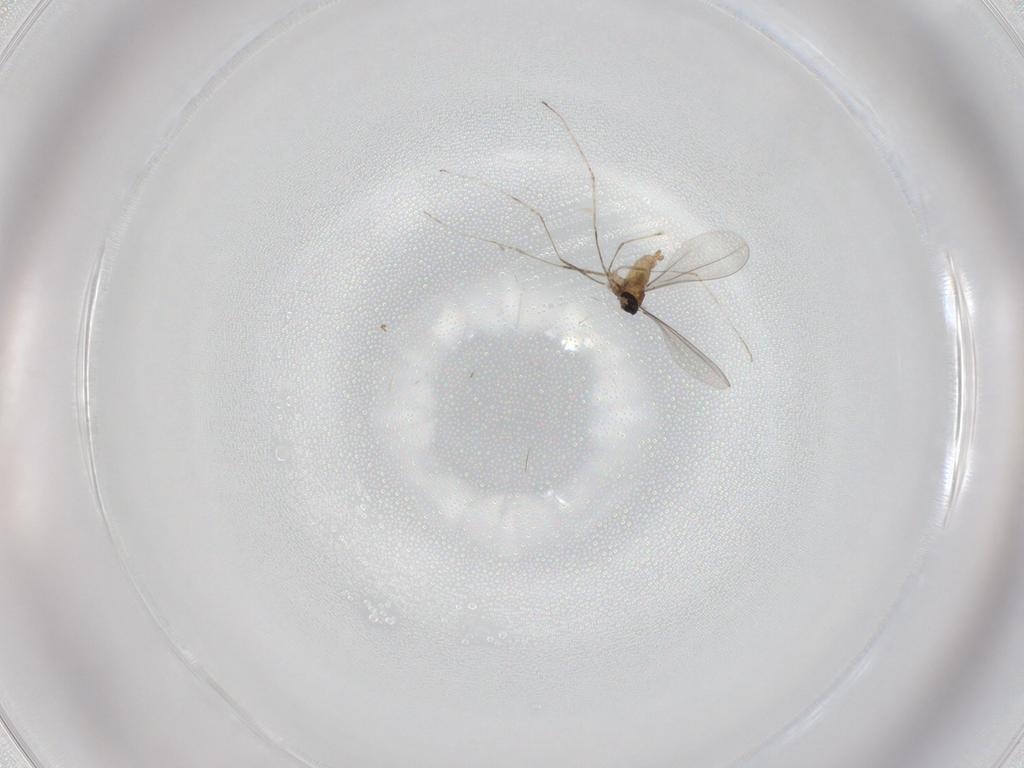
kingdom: Animalia
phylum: Arthropoda
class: Insecta
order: Diptera
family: Cecidomyiidae
